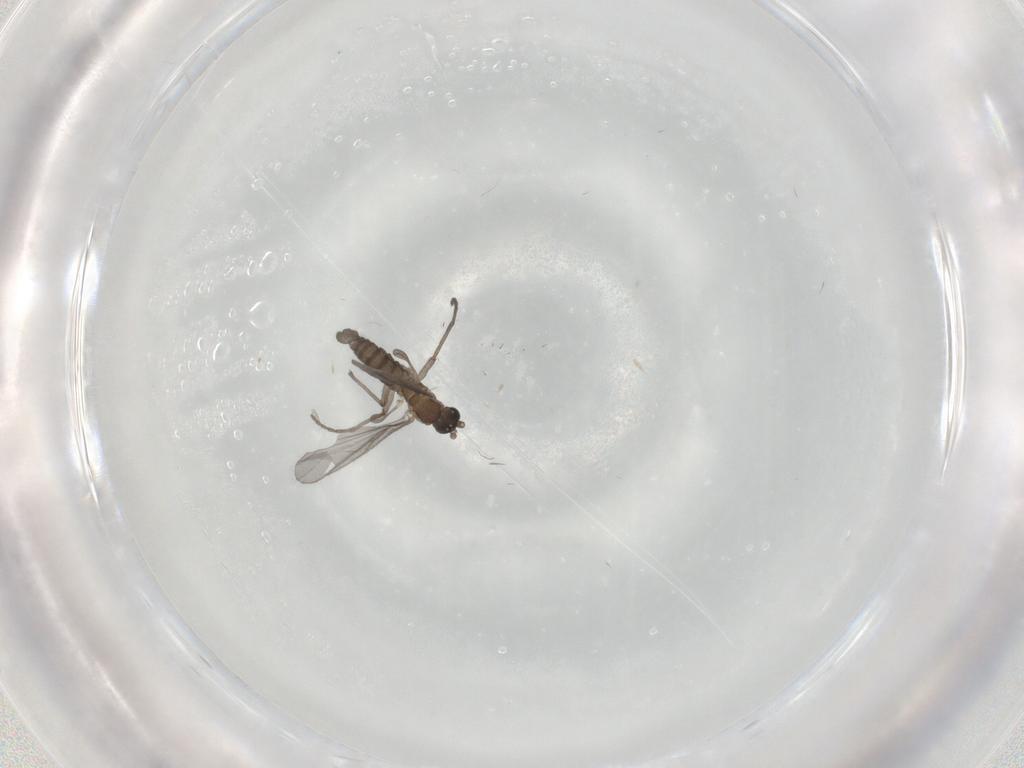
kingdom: Animalia
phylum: Arthropoda
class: Insecta
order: Diptera
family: Sciaridae
